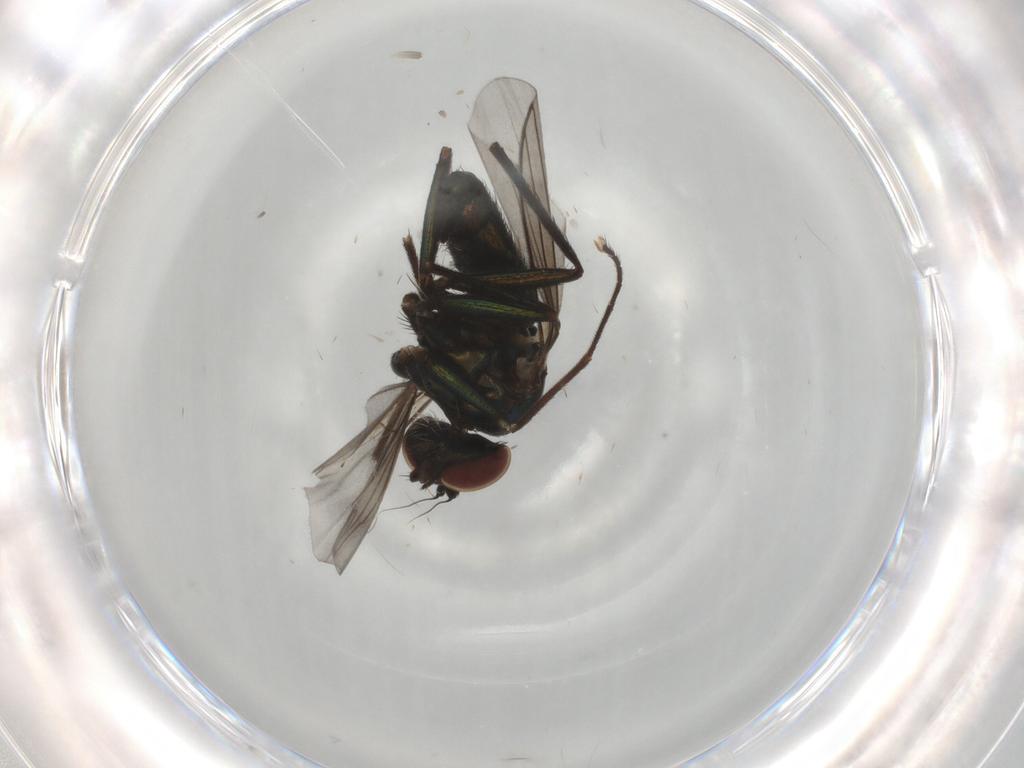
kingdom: Animalia
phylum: Arthropoda
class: Insecta
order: Diptera
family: Dolichopodidae
